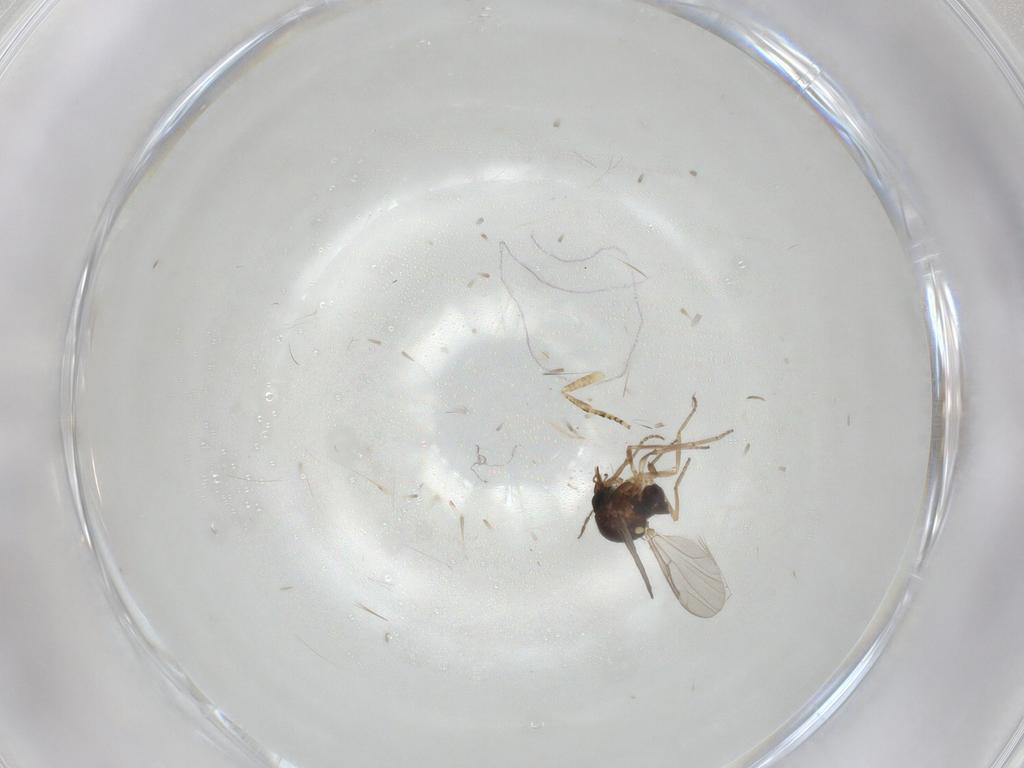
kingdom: Animalia
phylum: Arthropoda
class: Insecta
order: Diptera
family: Ceratopogonidae
